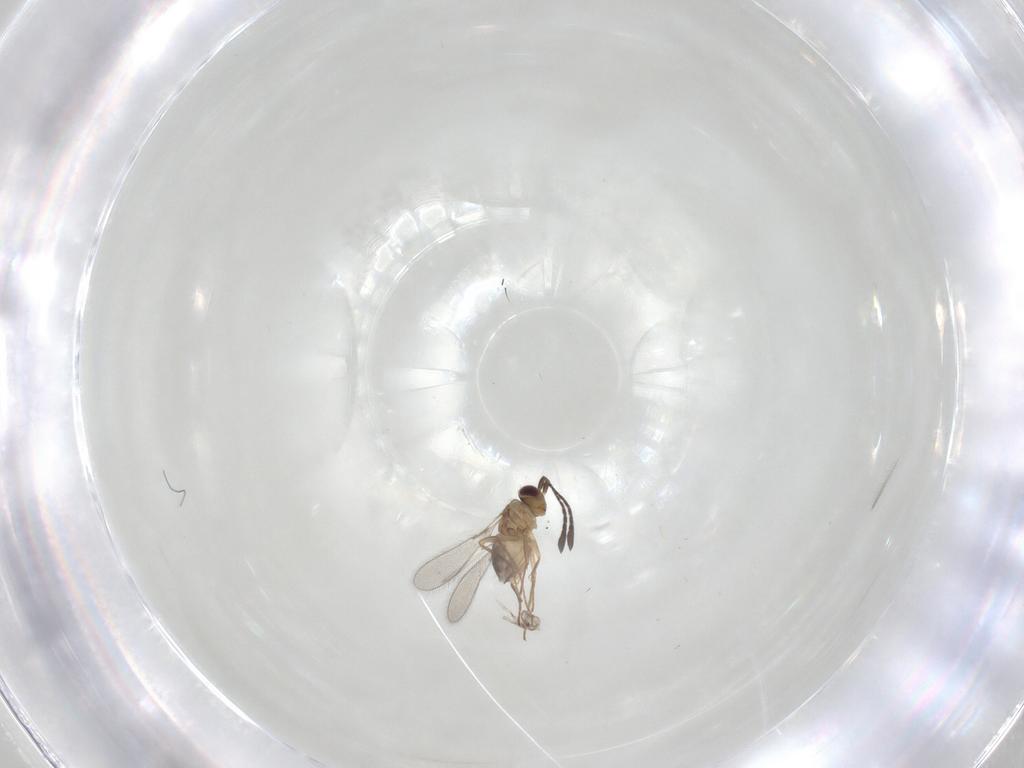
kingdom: Animalia
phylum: Arthropoda
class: Insecta
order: Hymenoptera
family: Mymaridae
